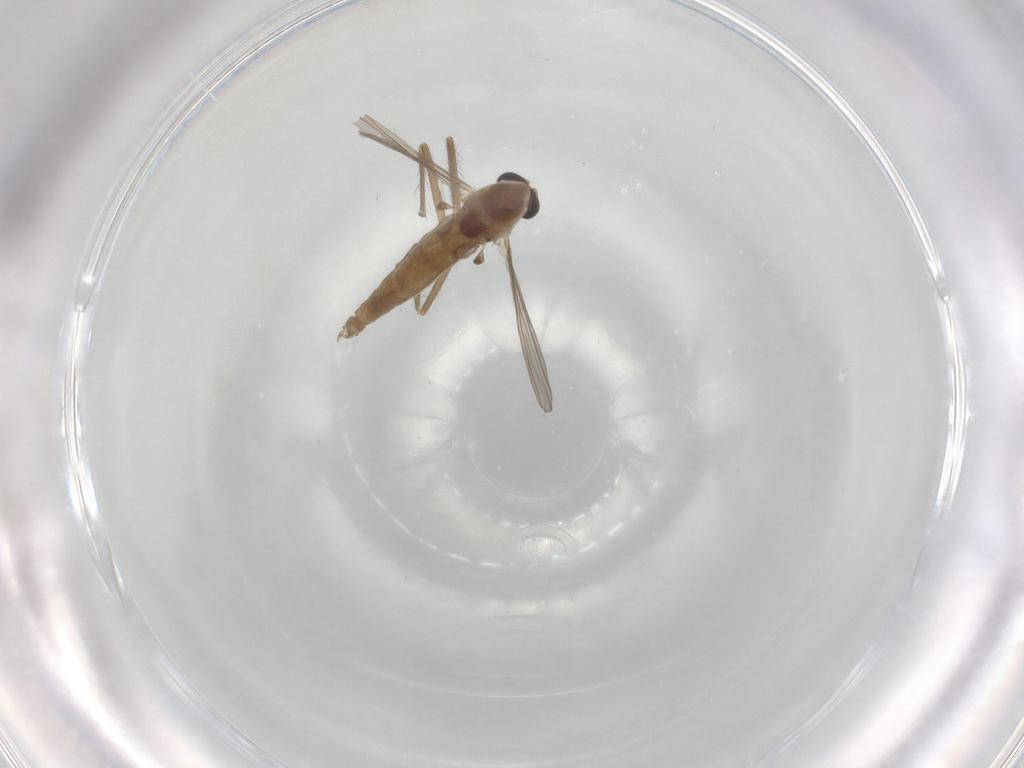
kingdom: Animalia
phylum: Arthropoda
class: Insecta
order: Diptera
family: Chironomidae
